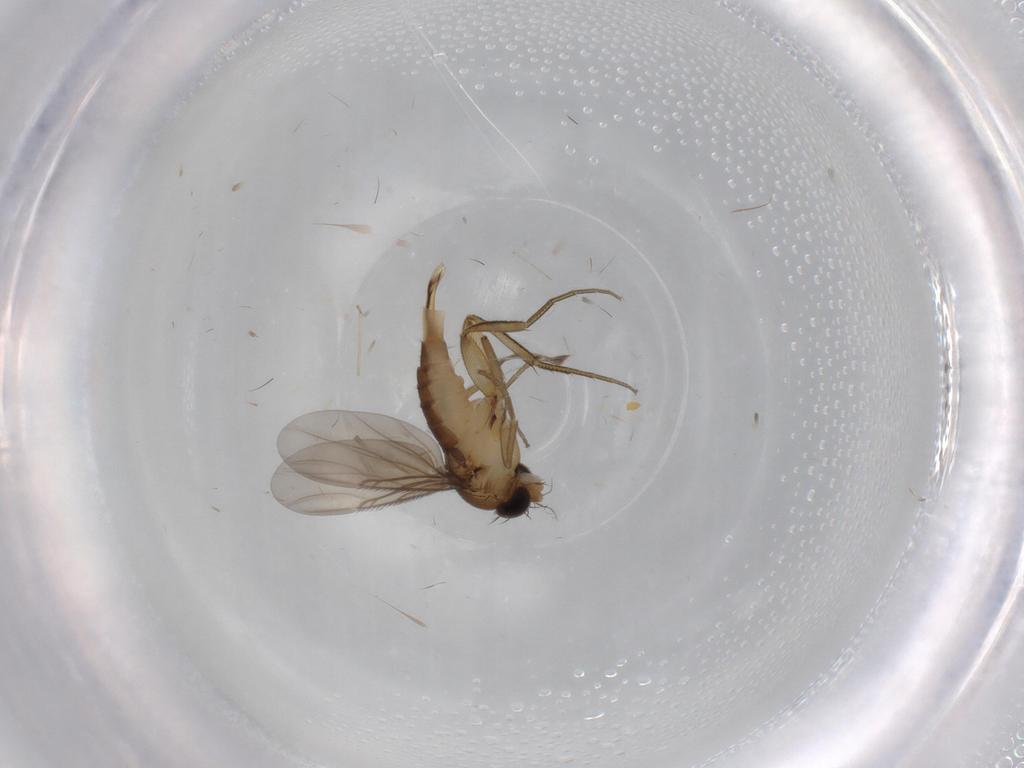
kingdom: Animalia
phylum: Arthropoda
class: Insecta
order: Diptera
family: Phoridae
